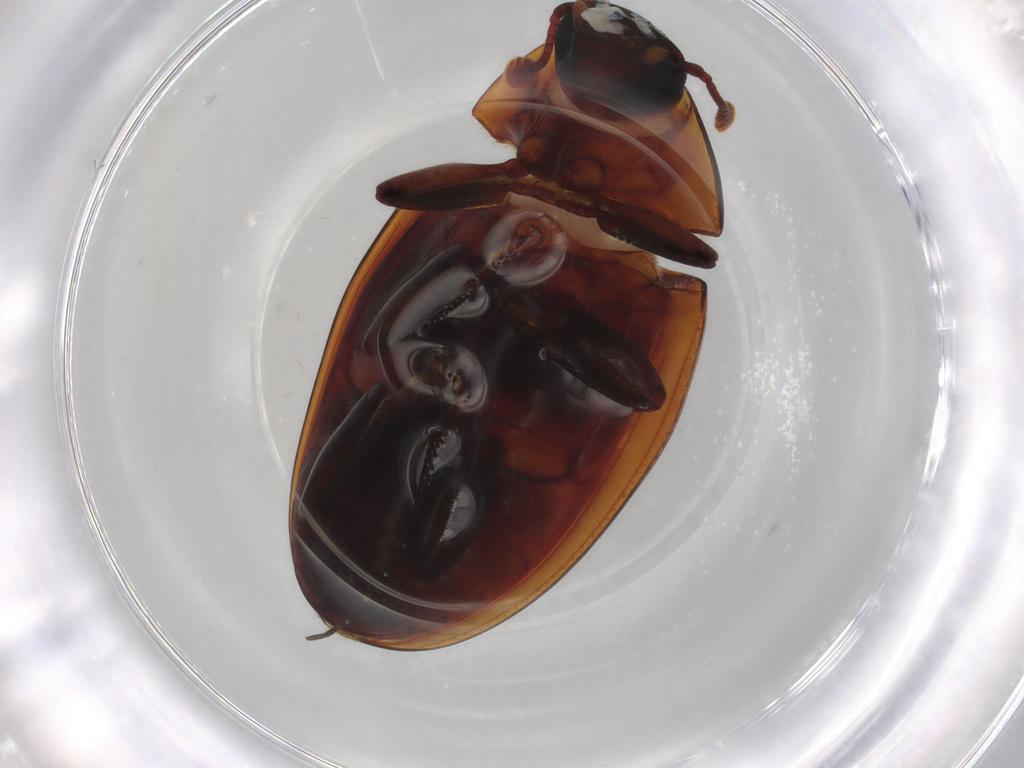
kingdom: Animalia
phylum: Arthropoda
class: Insecta
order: Coleoptera
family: Zopheridae
